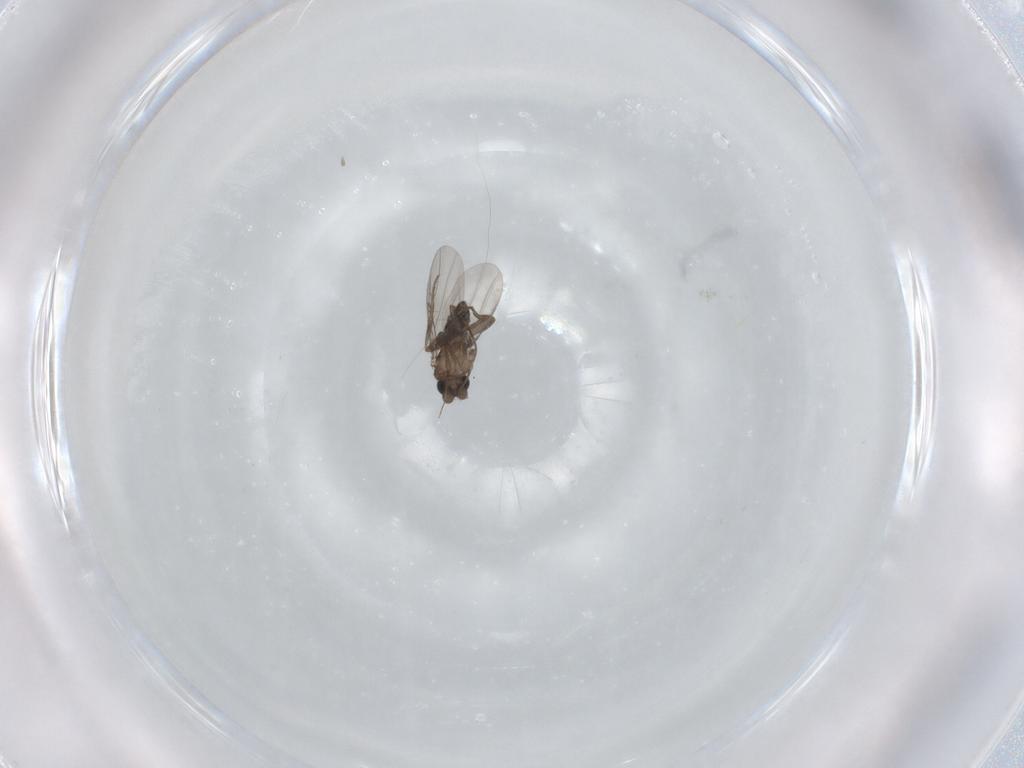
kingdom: Animalia
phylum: Arthropoda
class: Insecta
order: Diptera
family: Phoridae
